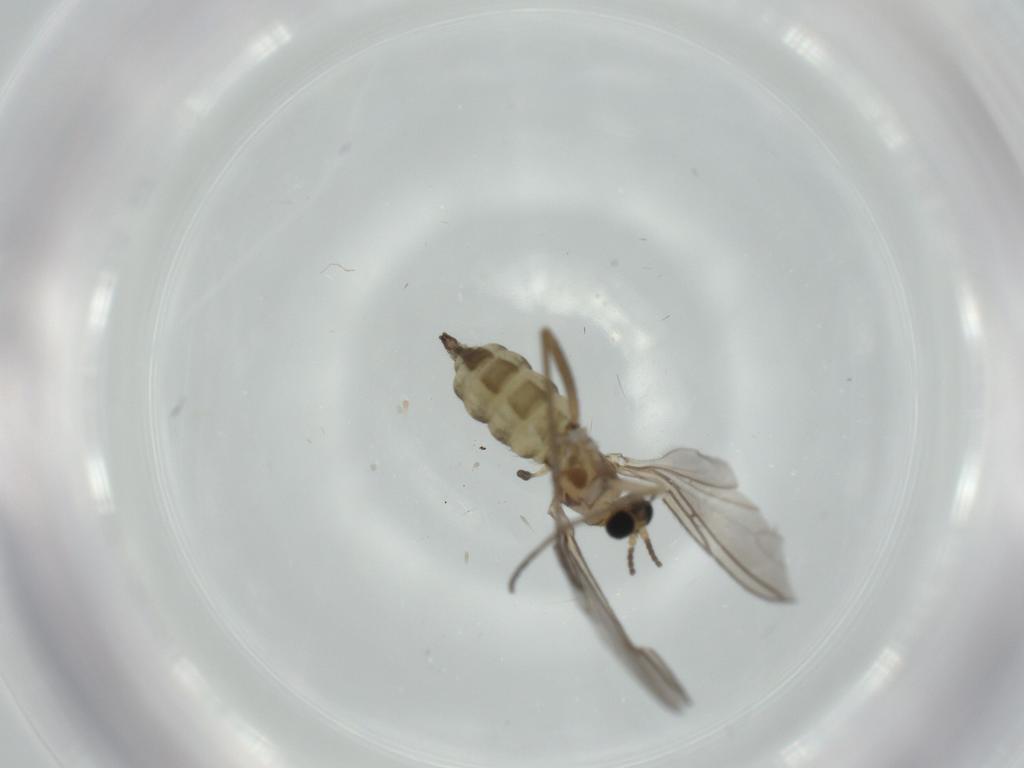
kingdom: Animalia
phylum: Arthropoda
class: Insecta
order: Diptera
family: Sciaridae
